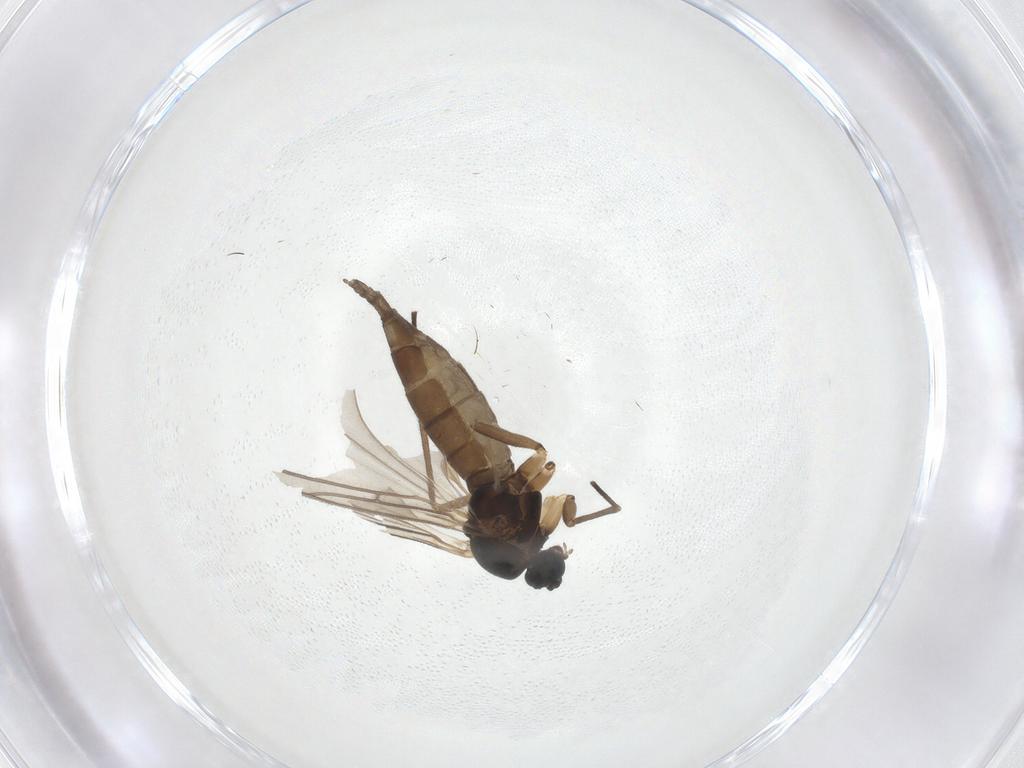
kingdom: Animalia
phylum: Arthropoda
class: Insecta
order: Diptera
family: Sciaridae
